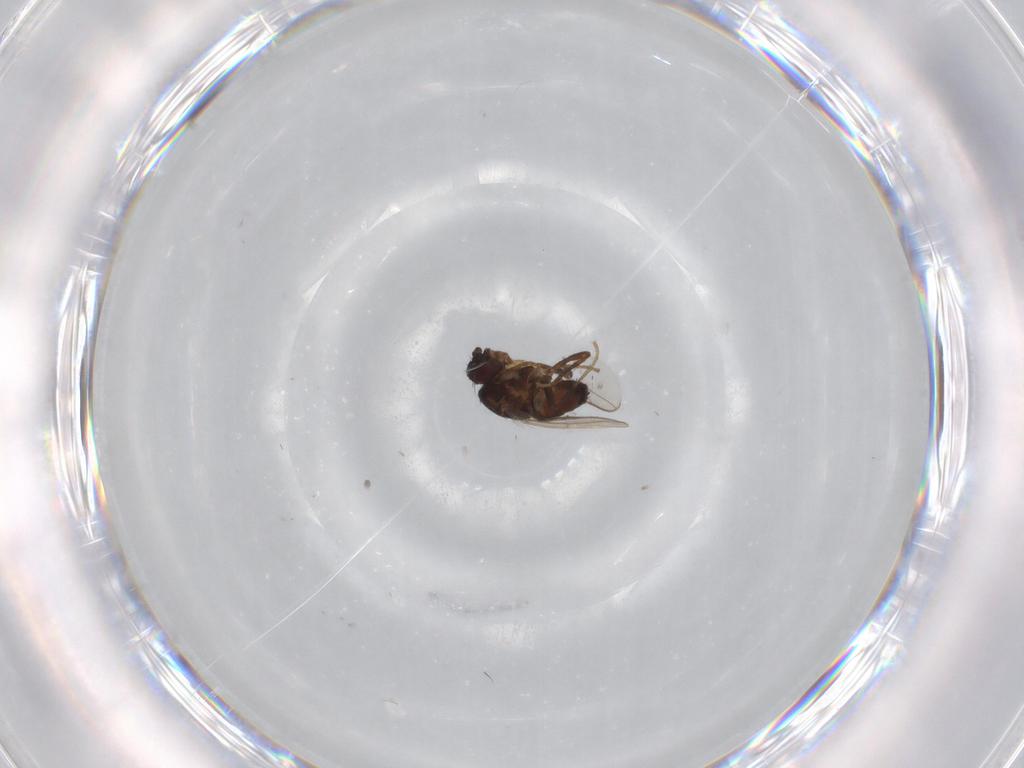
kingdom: Animalia
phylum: Arthropoda
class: Insecta
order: Diptera
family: Sphaeroceridae
